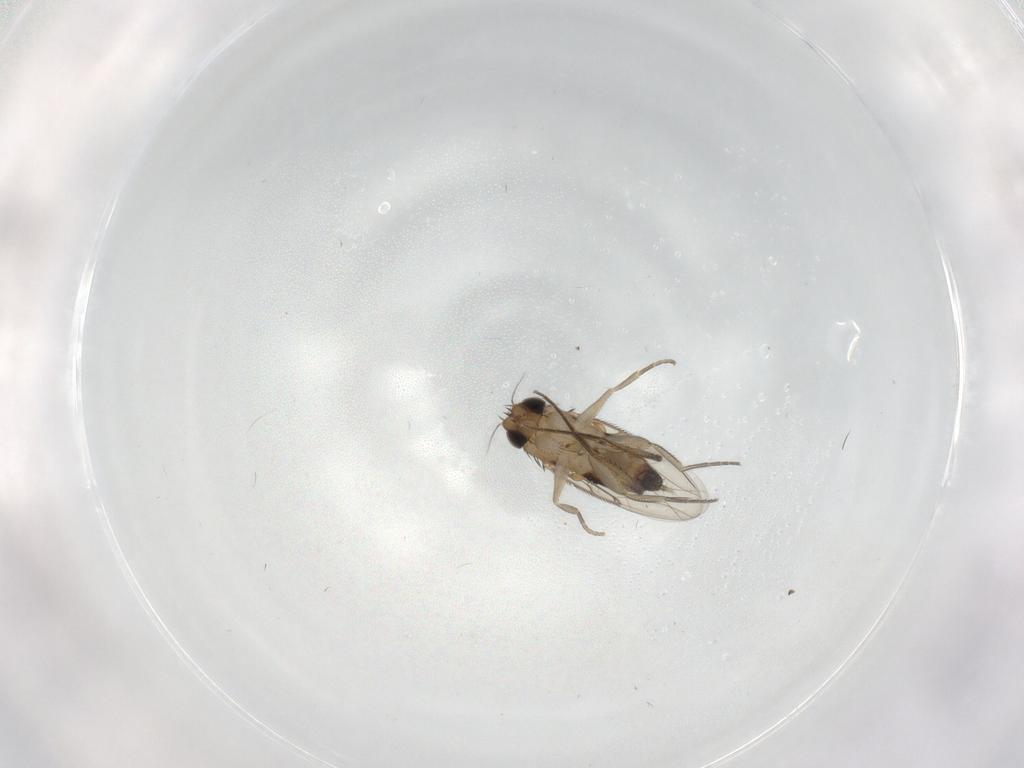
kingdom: Animalia
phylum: Arthropoda
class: Insecta
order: Diptera
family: Phoridae
